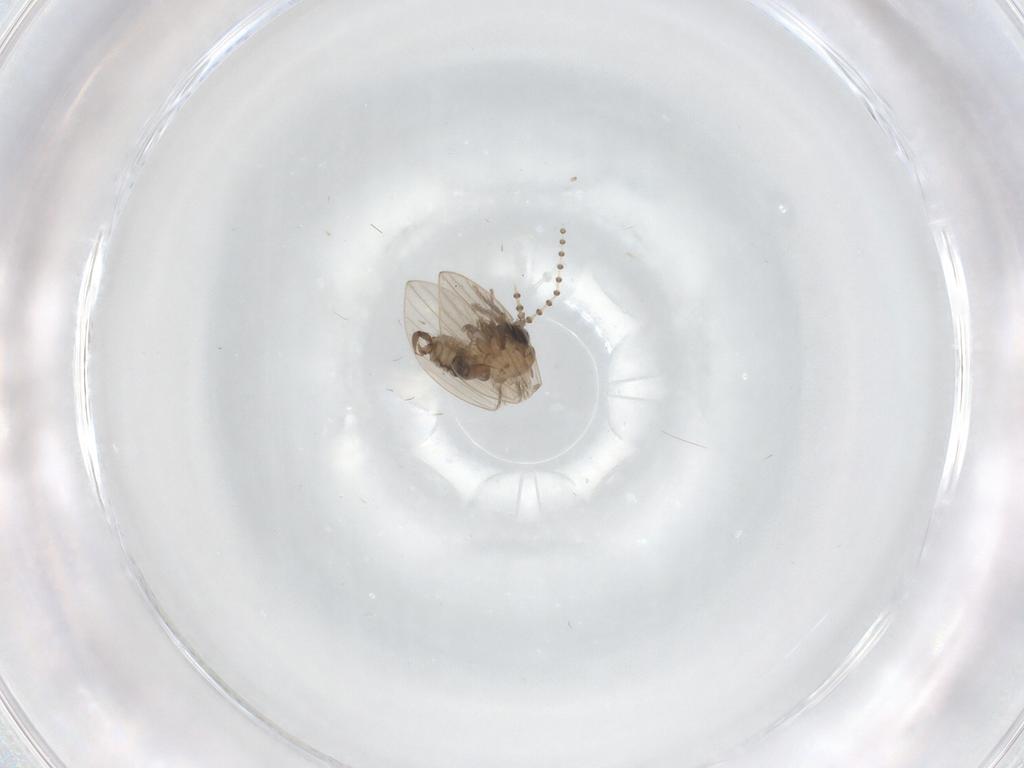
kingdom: Animalia
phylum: Arthropoda
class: Insecta
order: Diptera
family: Psychodidae
